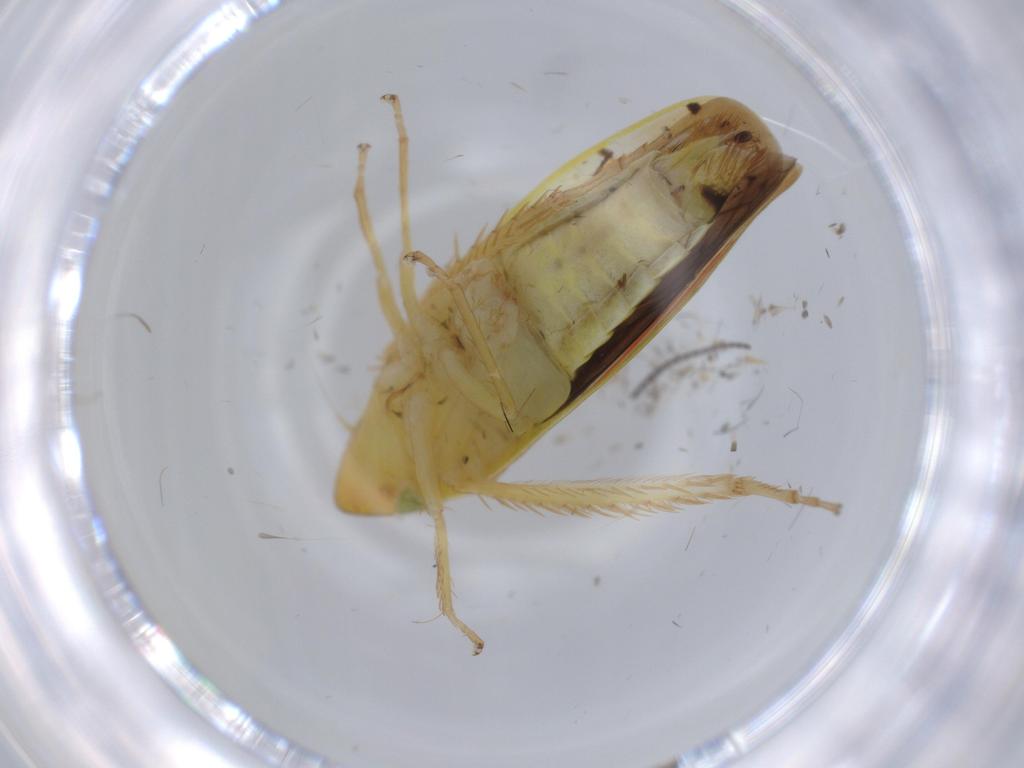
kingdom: Animalia
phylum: Arthropoda
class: Insecta
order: Hemiptera
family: Cicadellidae
